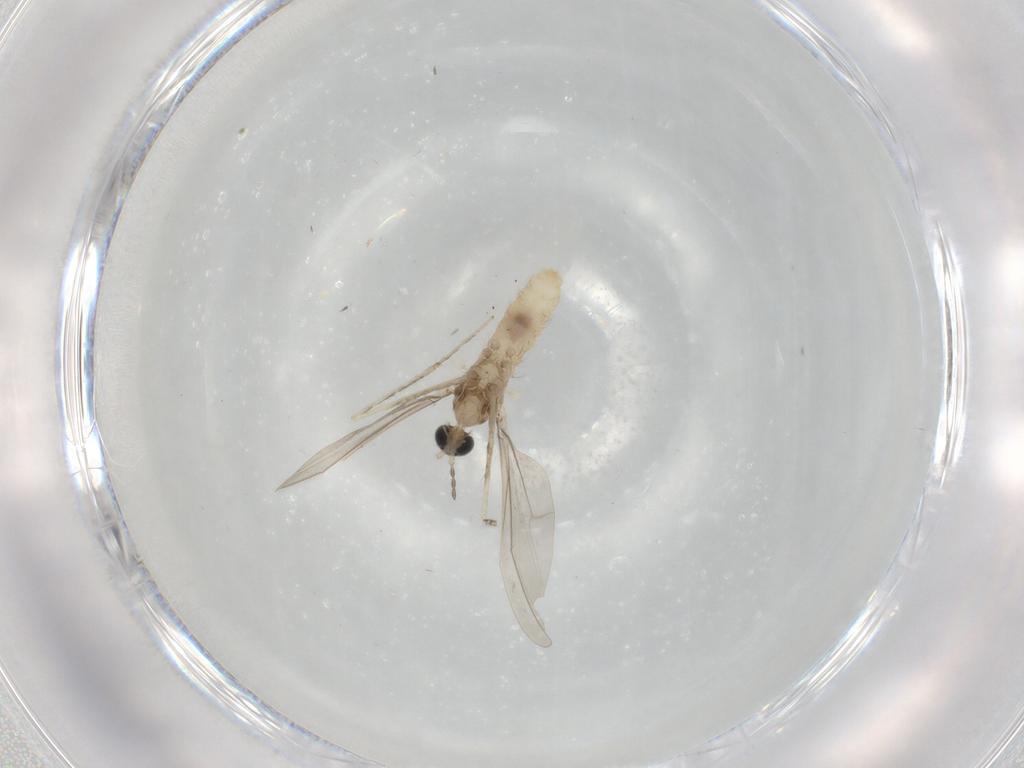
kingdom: Animalia
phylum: Arthropoda
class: Insecta
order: Diptera
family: Cecidomyiidae
